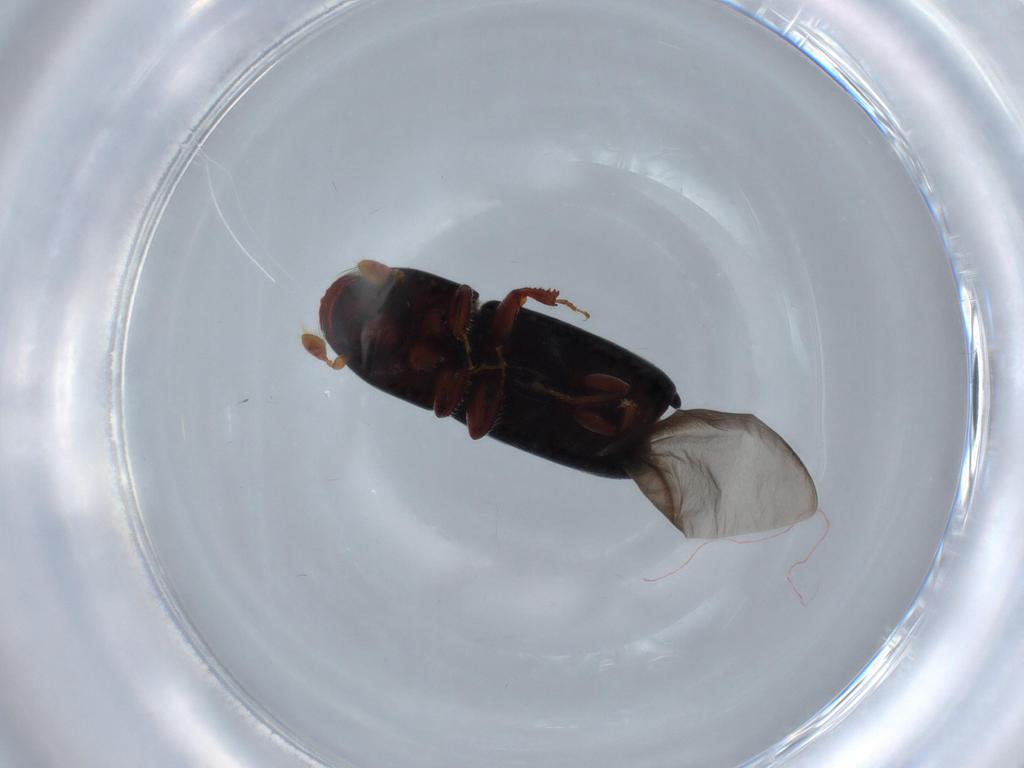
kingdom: Animalia
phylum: Arthropoda
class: Insecta
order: Coleoptera
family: Curculionidae
